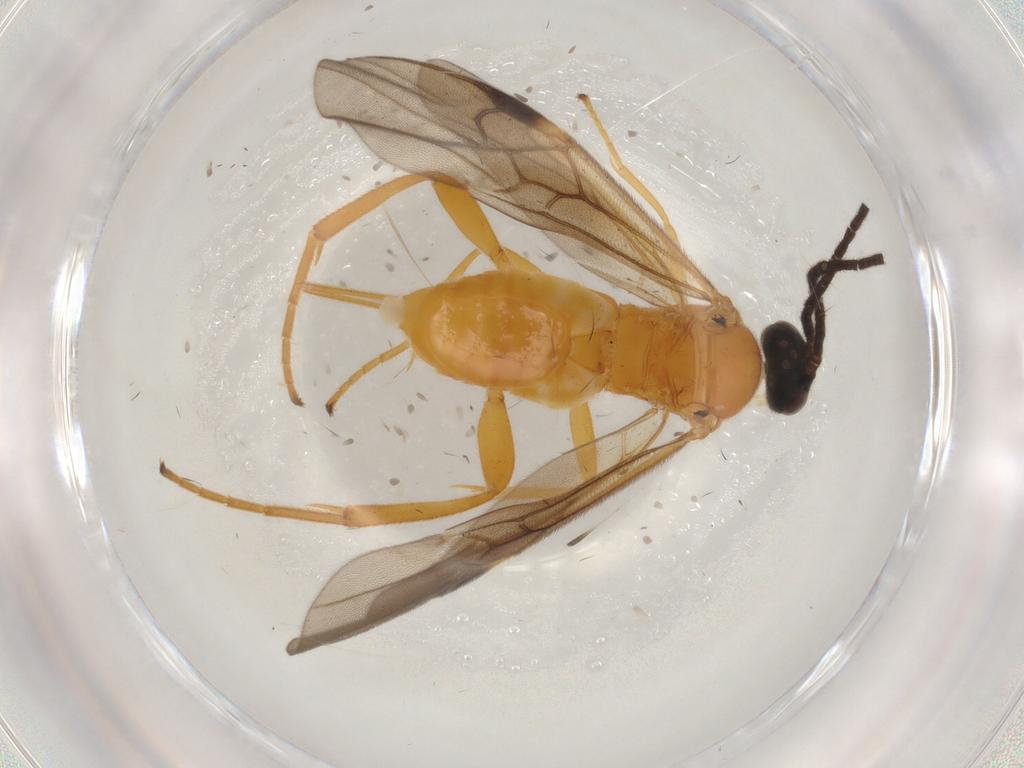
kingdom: Animalia
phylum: Arthropoda
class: Insecta
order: Hymenoptera
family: Braconidae
